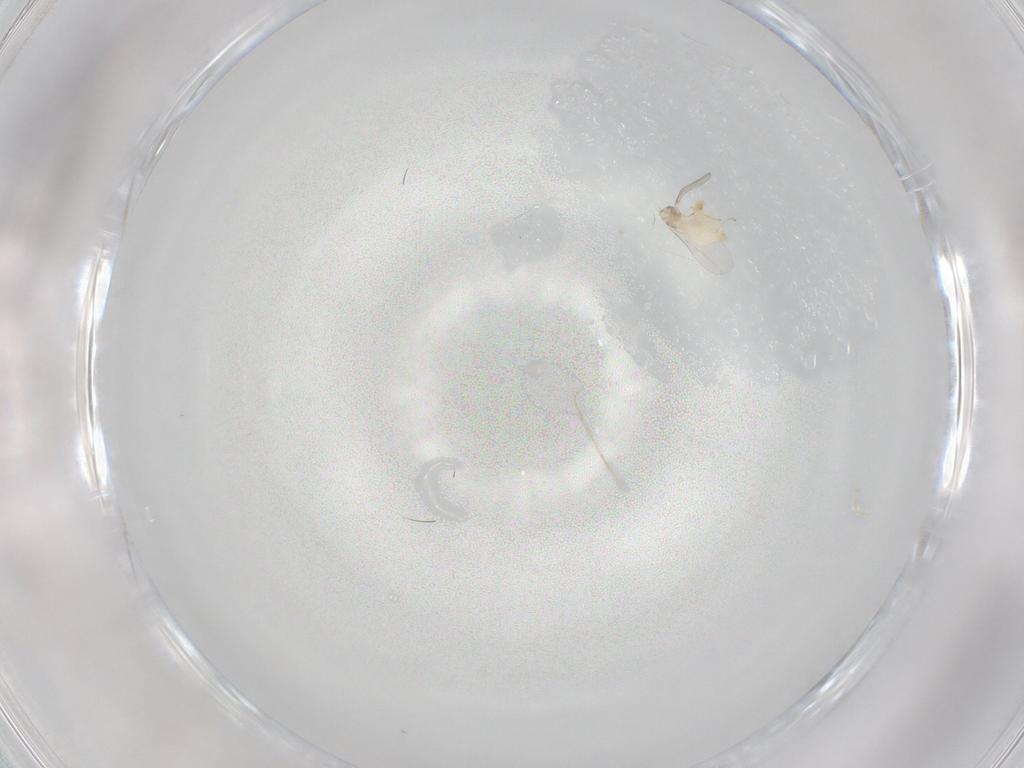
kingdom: Animalia
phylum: Arthropoda
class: Insecta
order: Diptera
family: Cecidomyiidae
